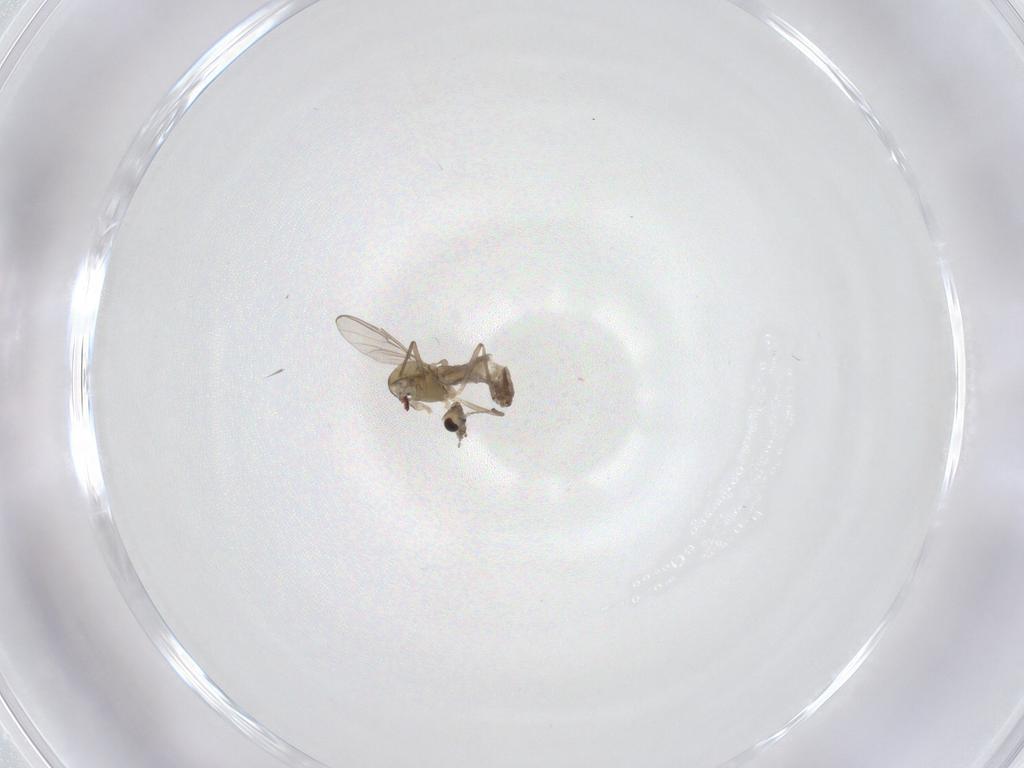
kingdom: Animalia
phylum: Arthropoda
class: Insecta
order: Diptera
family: Chironomidae
